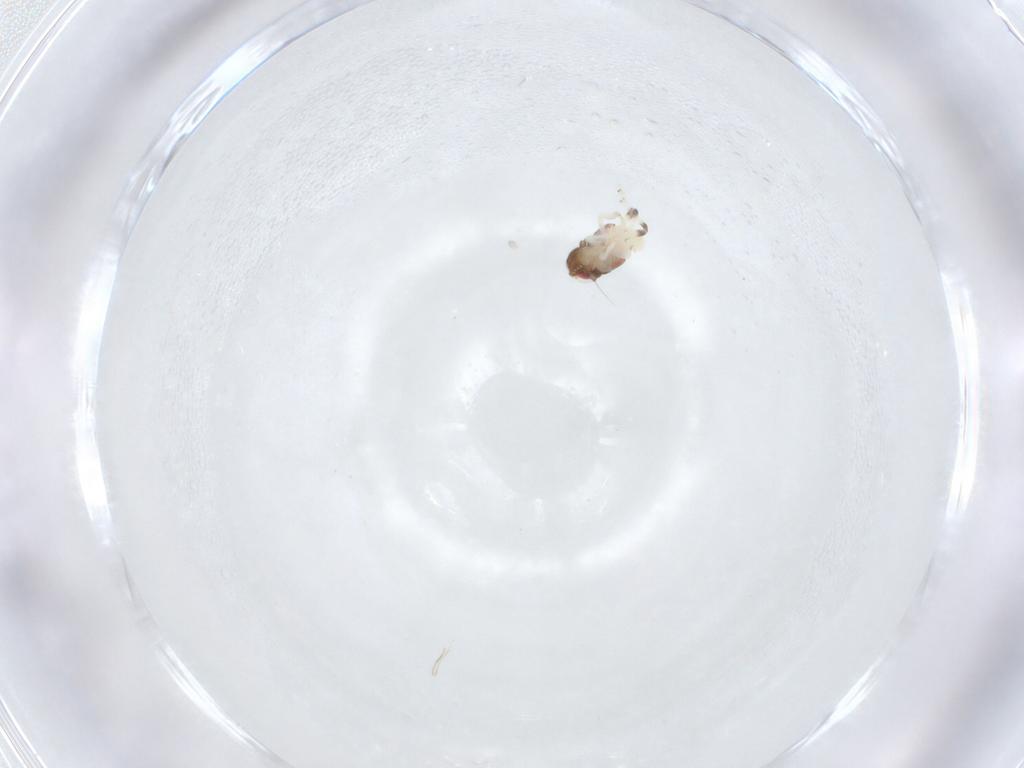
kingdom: Animalia
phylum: Arthropoda
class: Insecta
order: Hemiptera
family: Nogodinidae
